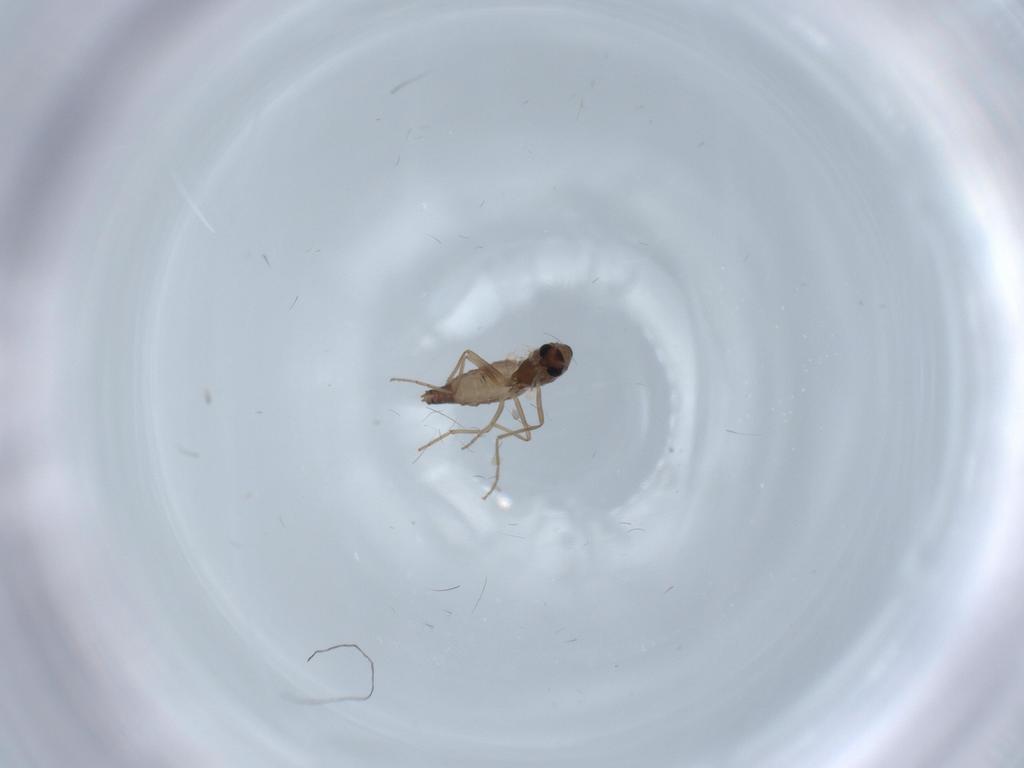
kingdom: Animalia
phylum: Arthropoda
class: Insecta
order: Diptera
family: Chironomidae
